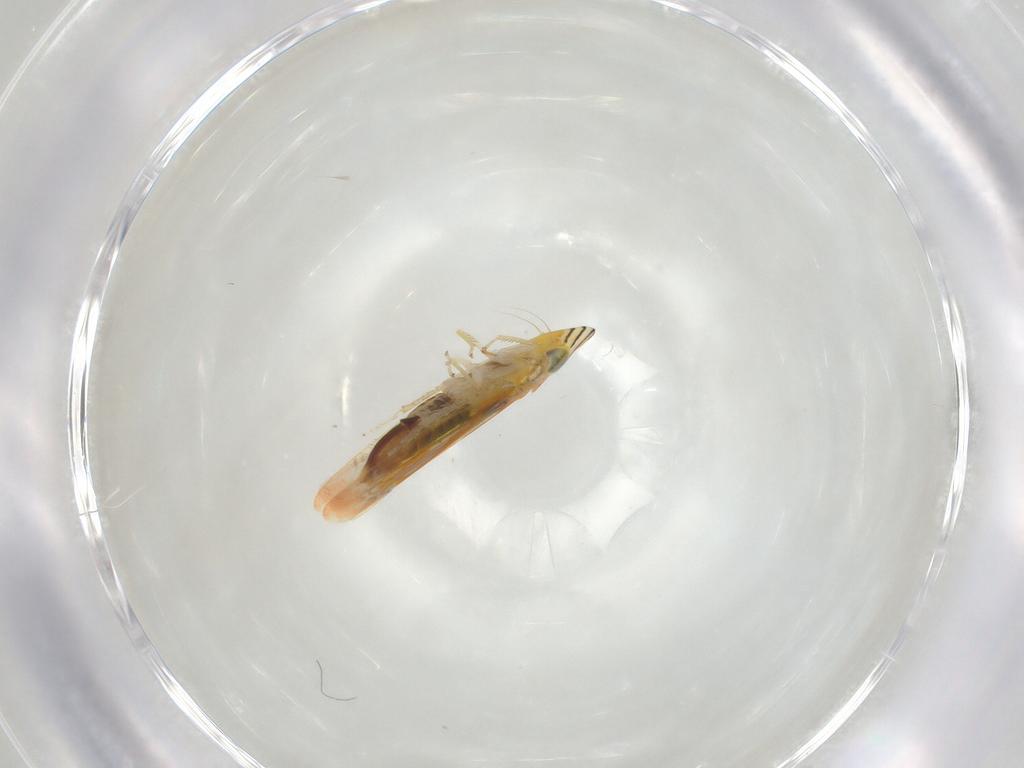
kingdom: Animalia
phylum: Arthropoda
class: Insecta
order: Hemiptera
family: Cicadellidae
